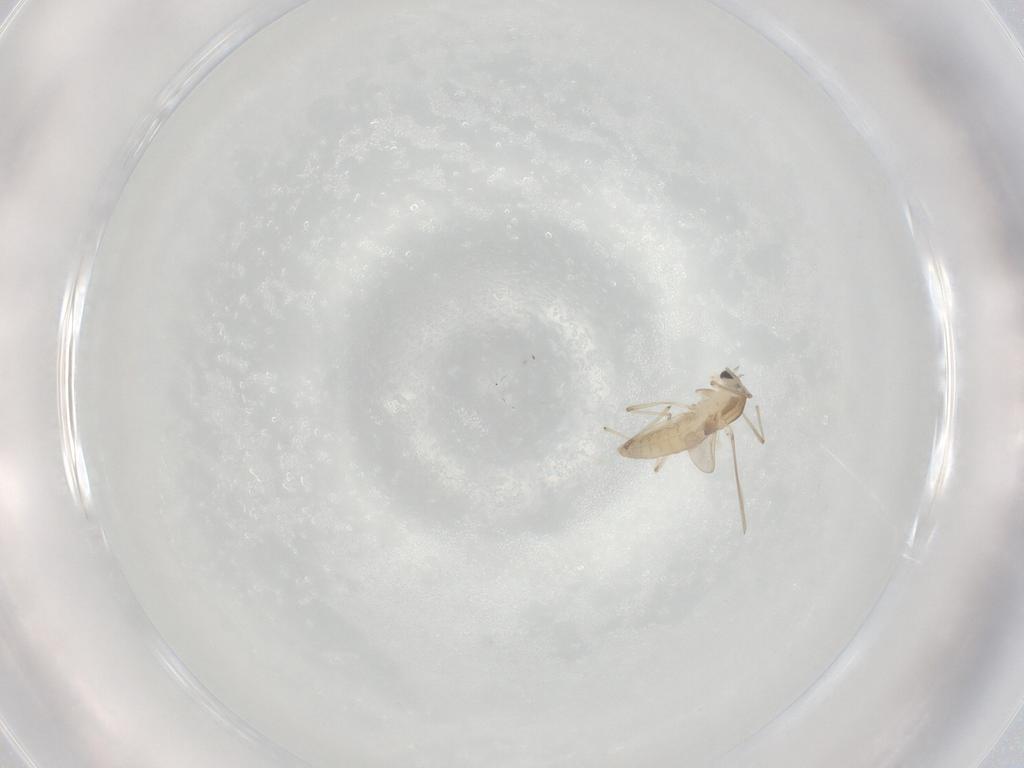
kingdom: Animalia
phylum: Arthropoda
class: Insecta
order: Diptera
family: Chironomidae
